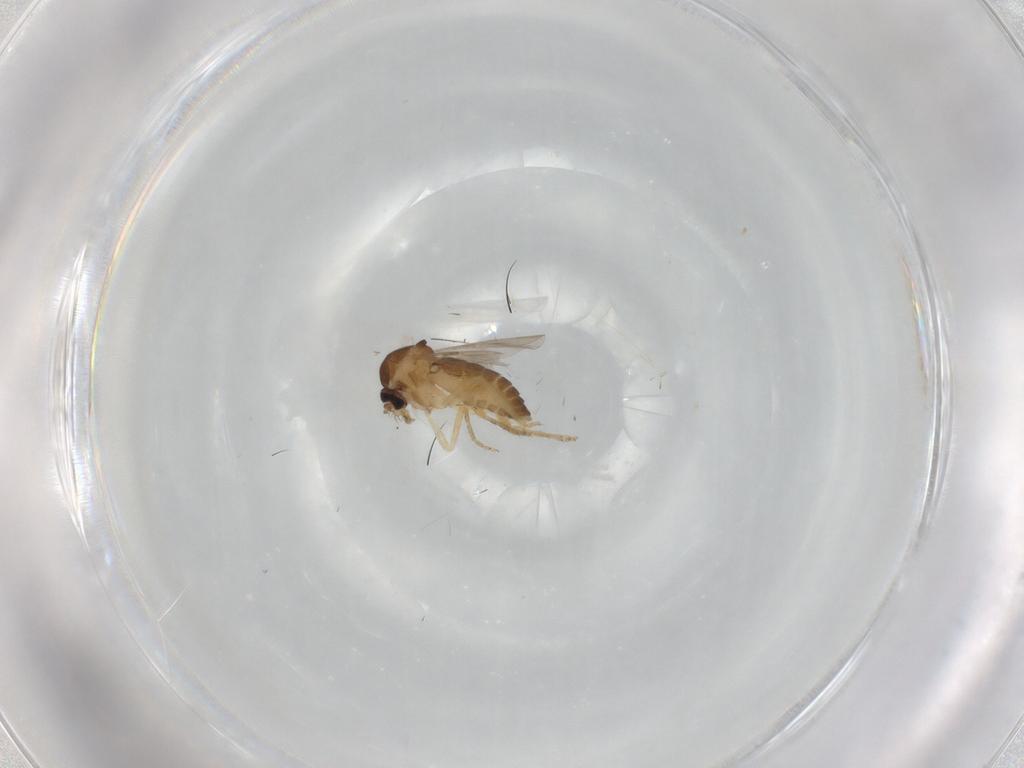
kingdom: Animalia
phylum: Arthropoda
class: Insecta
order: Diptera
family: Ceratopogonidae
